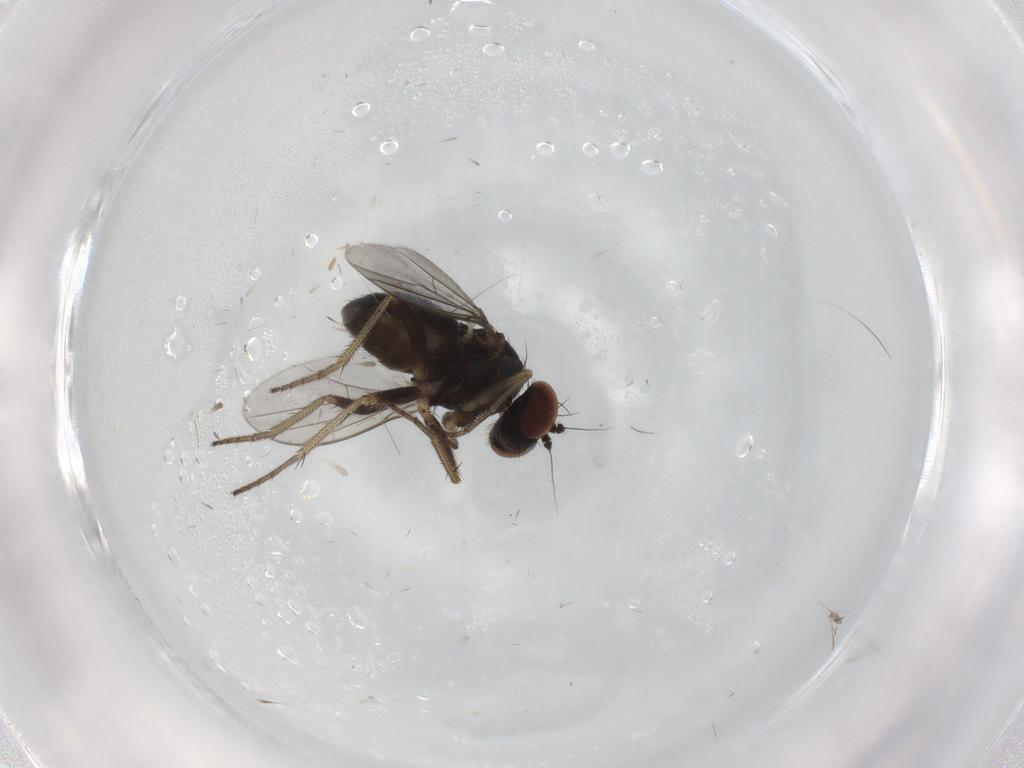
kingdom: Animalia
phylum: Arthropoda
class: Insecta
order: Diptera
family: Dolichopodidae
